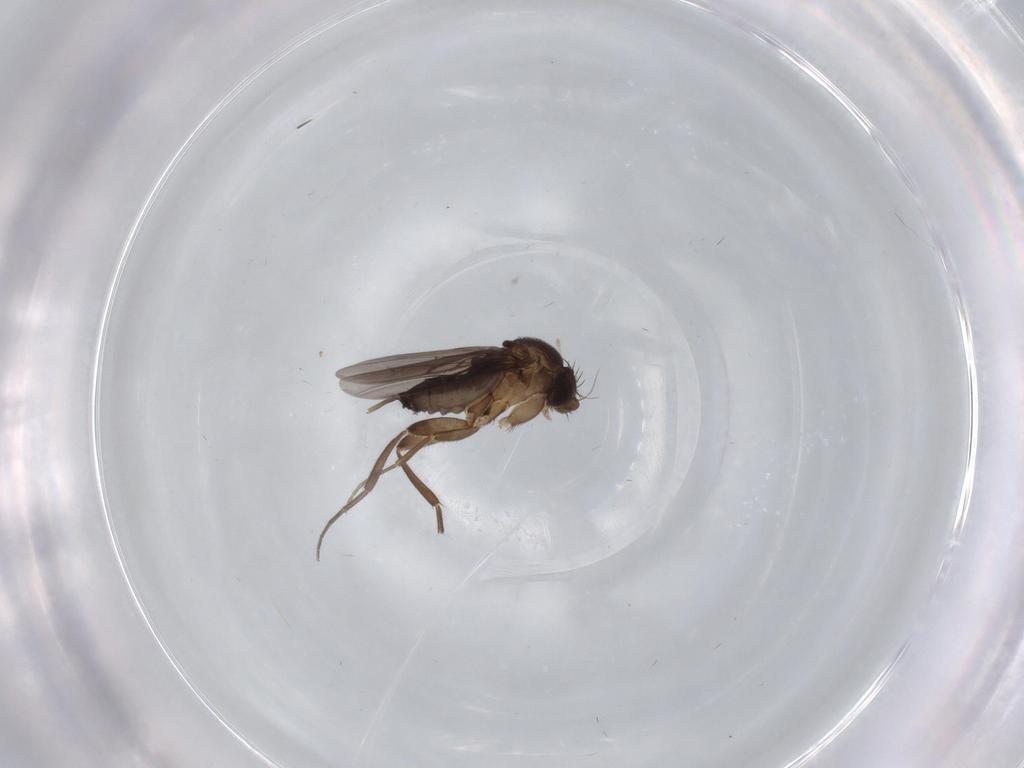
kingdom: Animalia
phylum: Arthropoda
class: Insecta
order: Diptera
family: Phoridae
